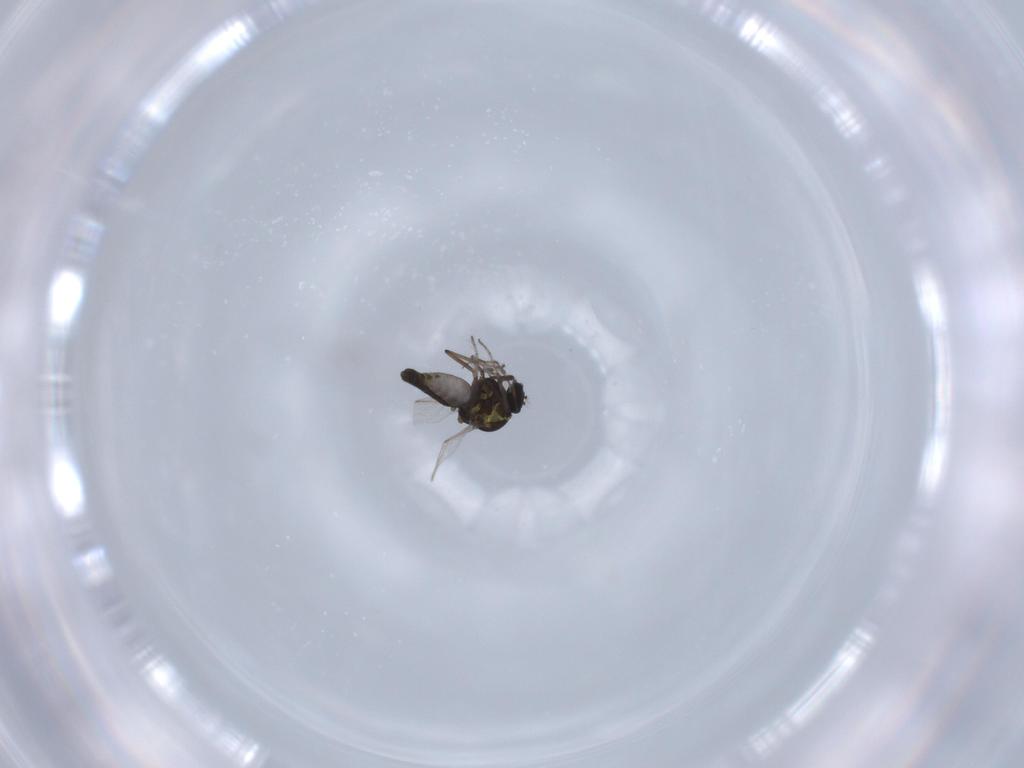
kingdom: Animalia
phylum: Arthropoda
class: Insecta
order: Diptera
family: Ceratopogonidae
